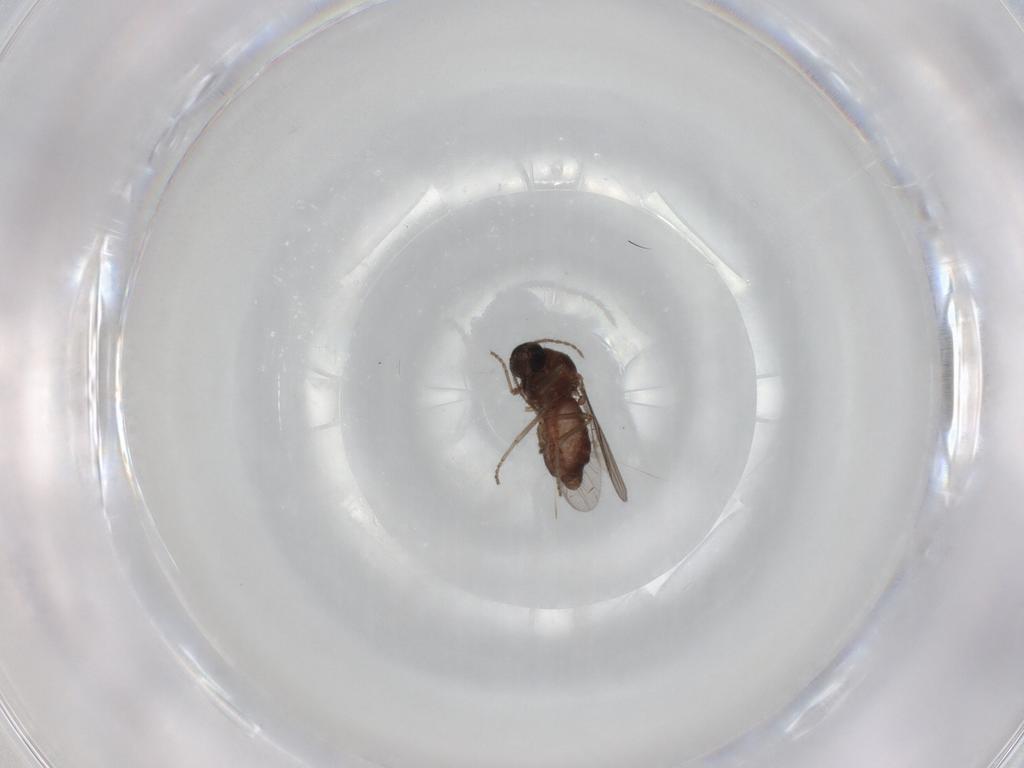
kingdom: Animalia
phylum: Arthropoda
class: Insecta
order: Diptera
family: Ceratopogonidae
